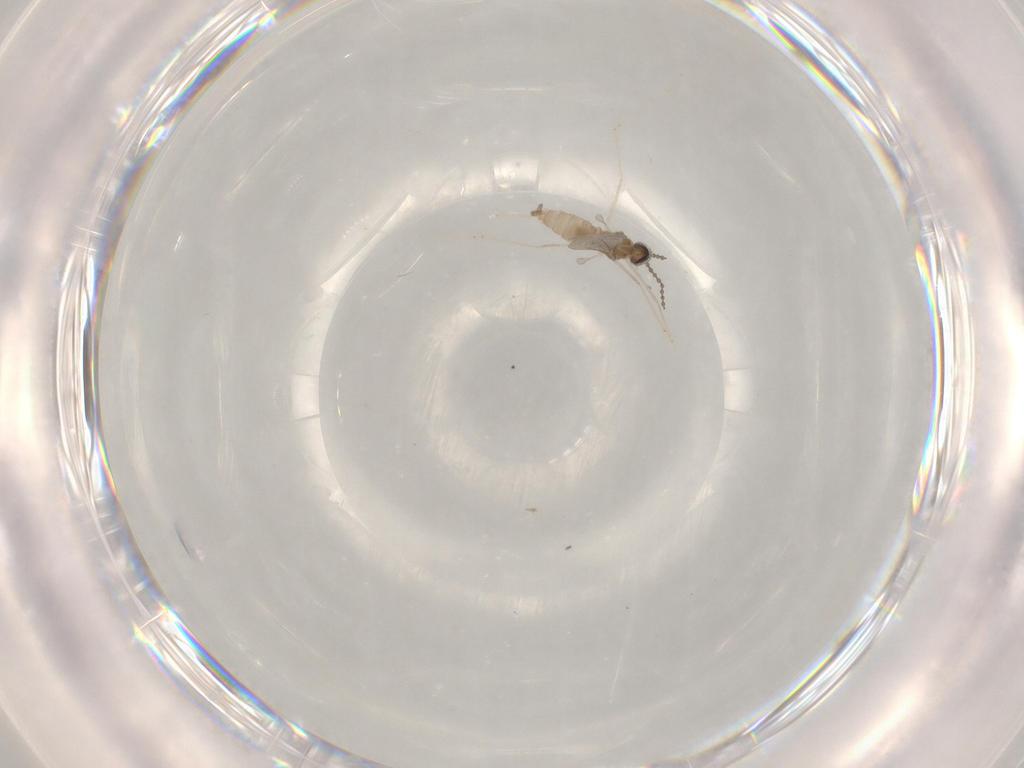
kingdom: Animalia
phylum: Arthropoda
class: Insecta
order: Diptera
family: Cecidomyiidae
